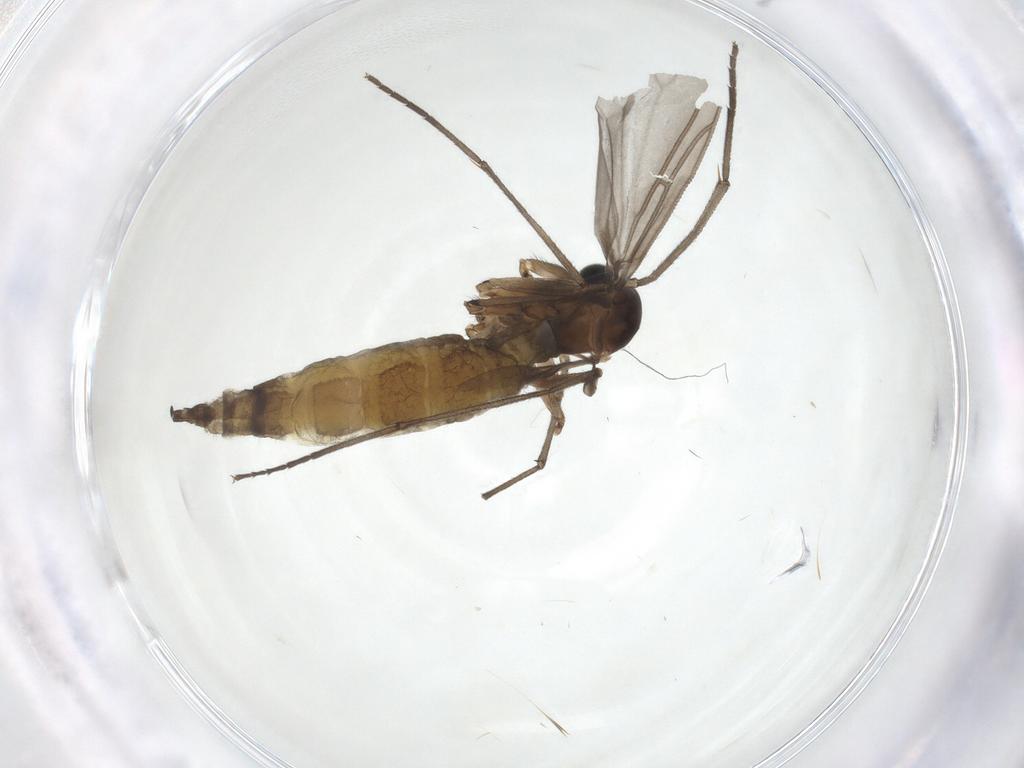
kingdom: Animalia
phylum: Arthropoda
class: Insecta
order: Diptera
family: Sciaridae
